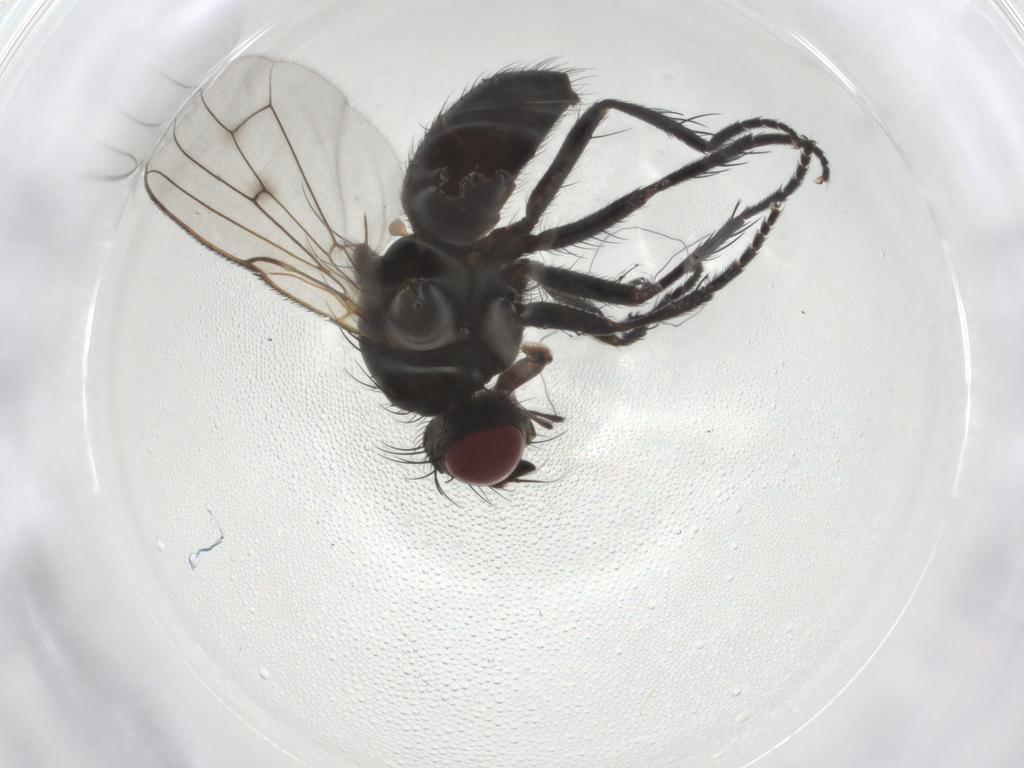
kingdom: Animalia
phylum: Arthropoda
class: Insecta
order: Diptera
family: Muscidae
